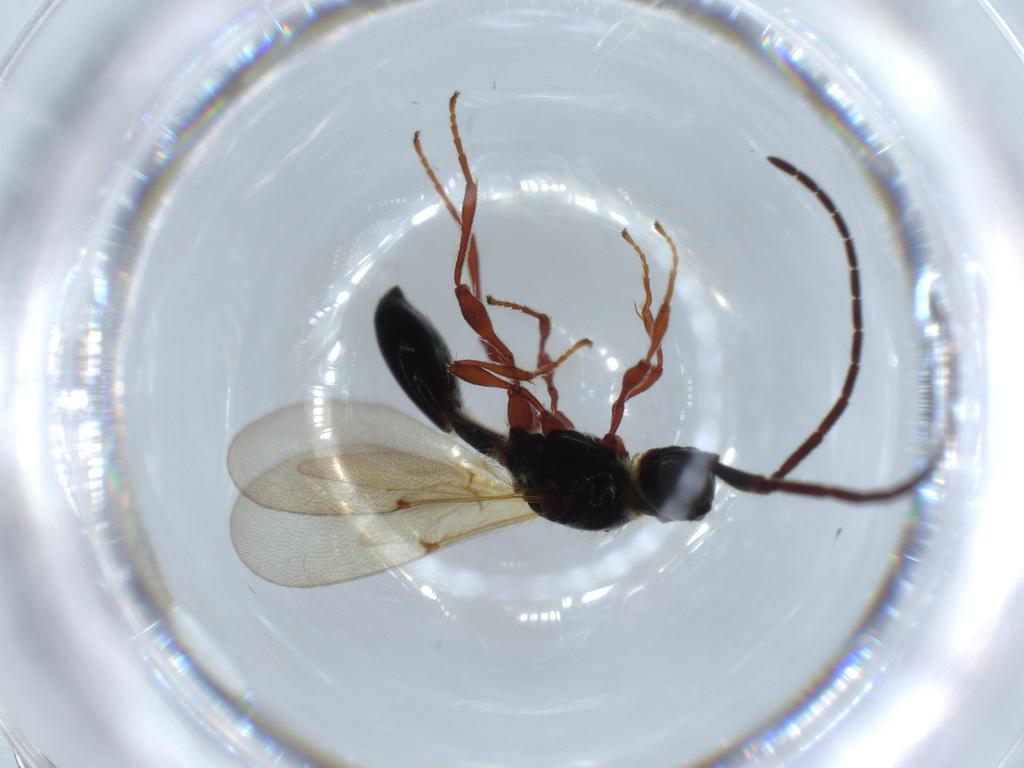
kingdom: Animalia
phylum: Arthropoda
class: Insecta
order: Hymenoptera
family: Diapriidae
